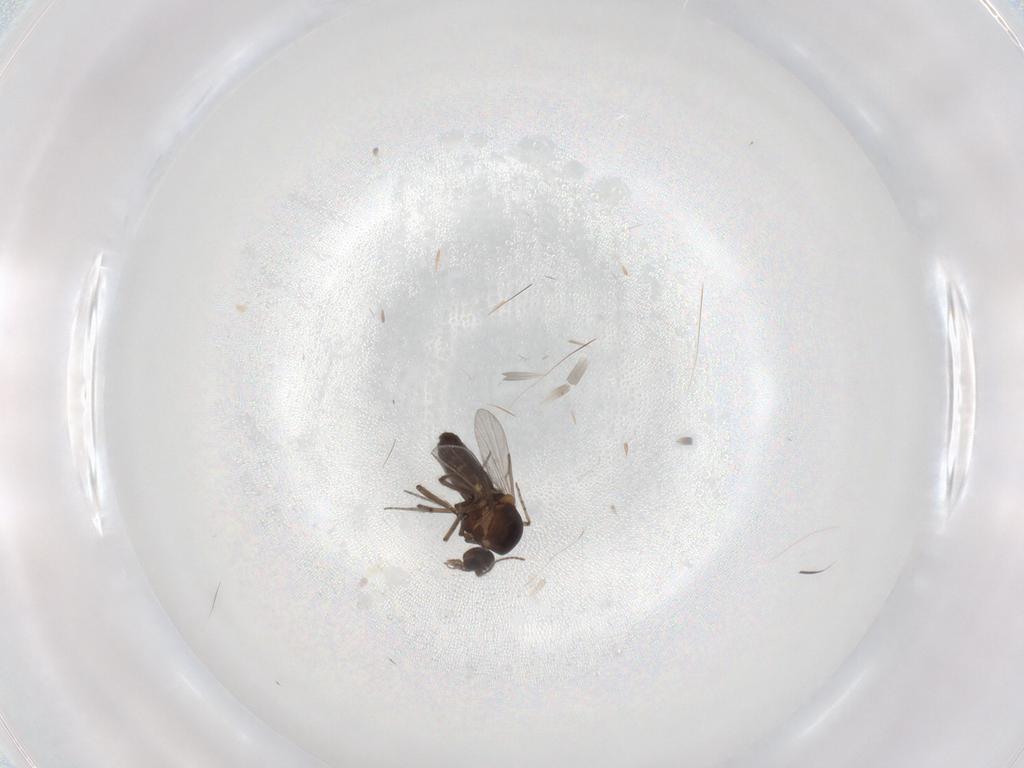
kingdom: Animalia
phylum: Arthropoda
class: Insecta
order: Diptera
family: Ceratopogonidae
